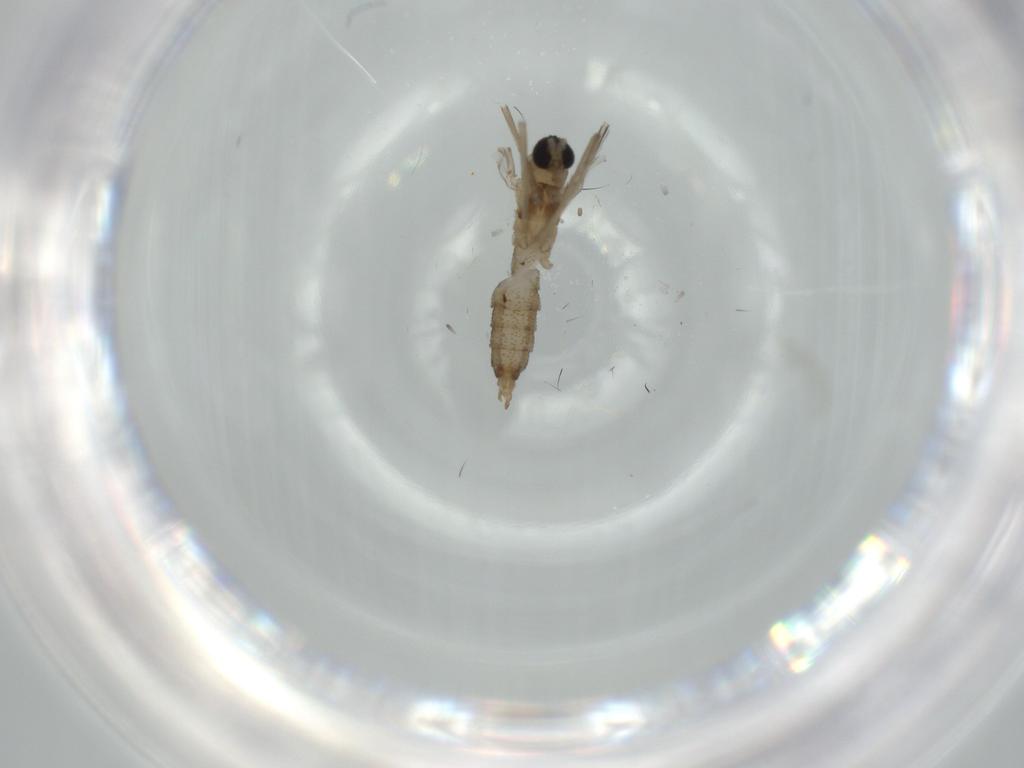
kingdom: Animalia
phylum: Arthropoda
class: Insecta
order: Diptera
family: Cecidomyiidae
